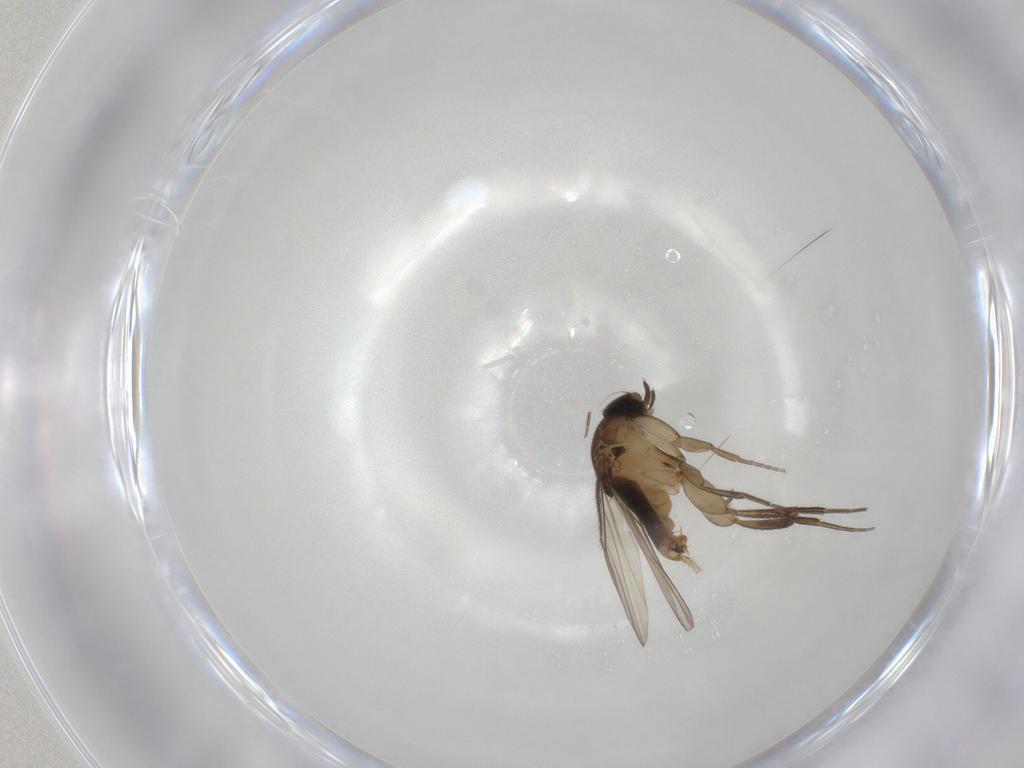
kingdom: Animalia
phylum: Arthropoda
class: Insecta
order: Diptera
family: Phoridae
